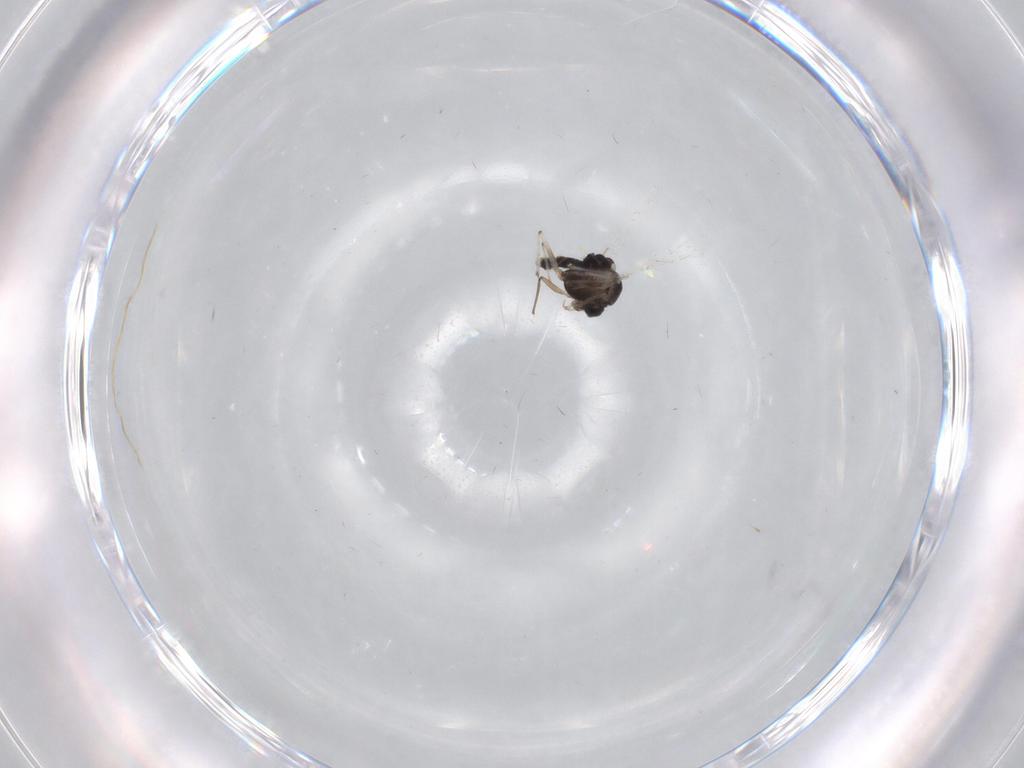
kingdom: Animalia
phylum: Arthropoda
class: Insecta
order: Diptera
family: Chironomidae
